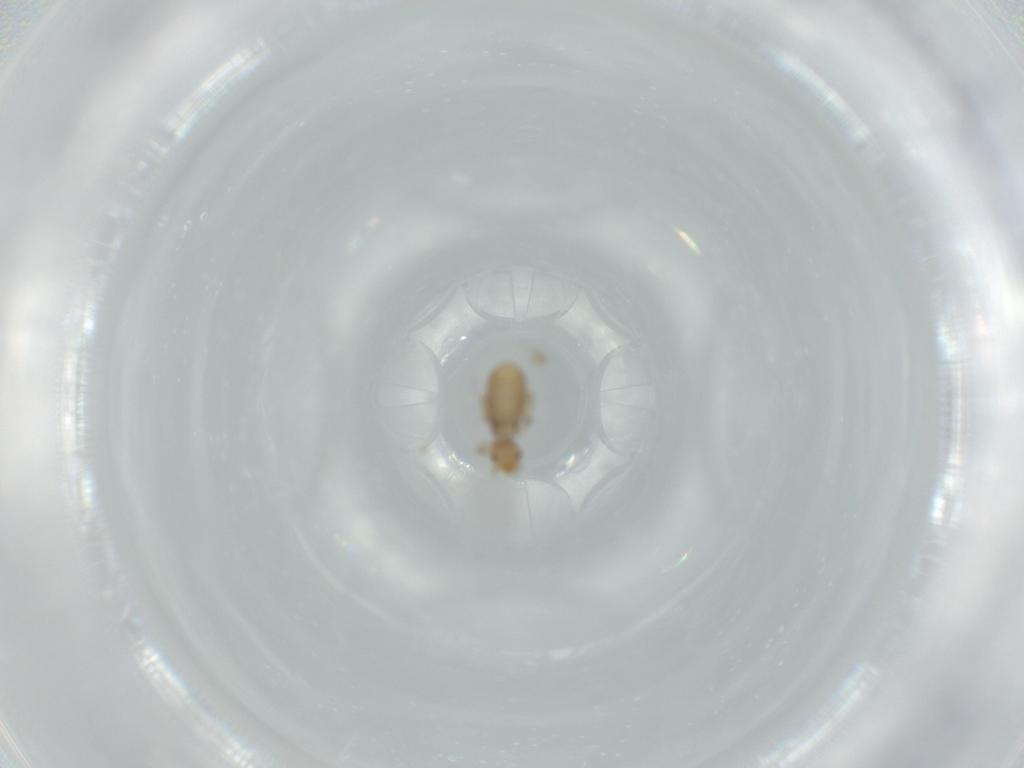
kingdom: Animalia
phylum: Arthropoda
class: Insecta
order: Psocodea
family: Liposcelididae
